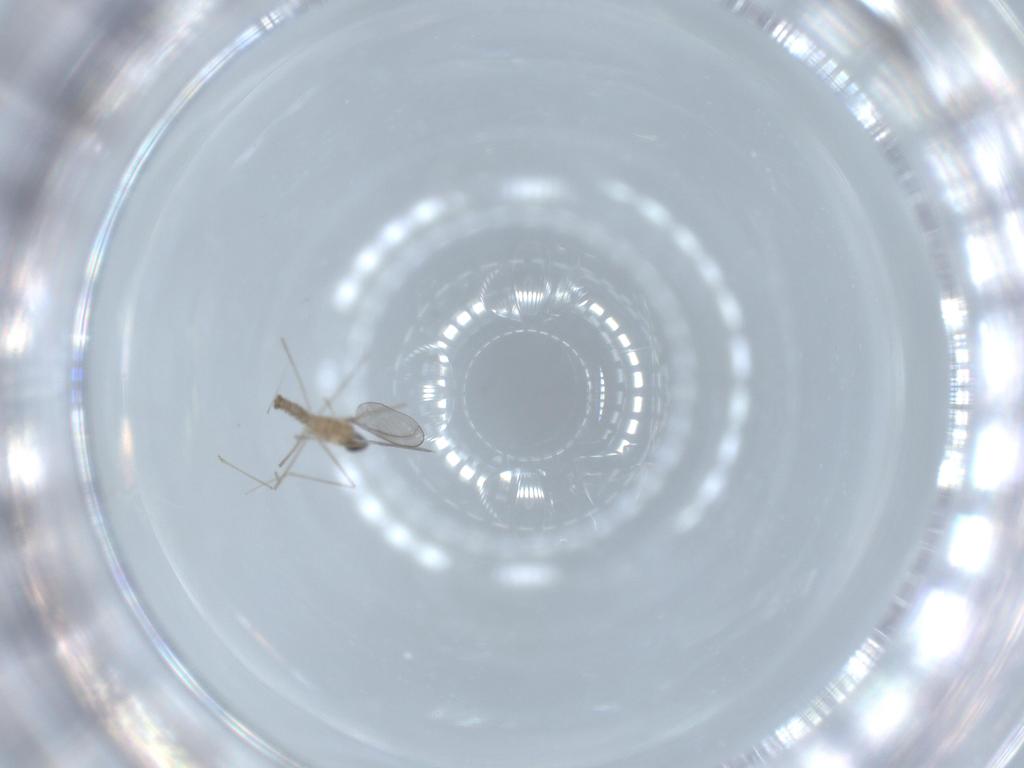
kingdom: Animalia
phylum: Arthropoda
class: Insecta
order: Diptera
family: Cecidomyiidae
